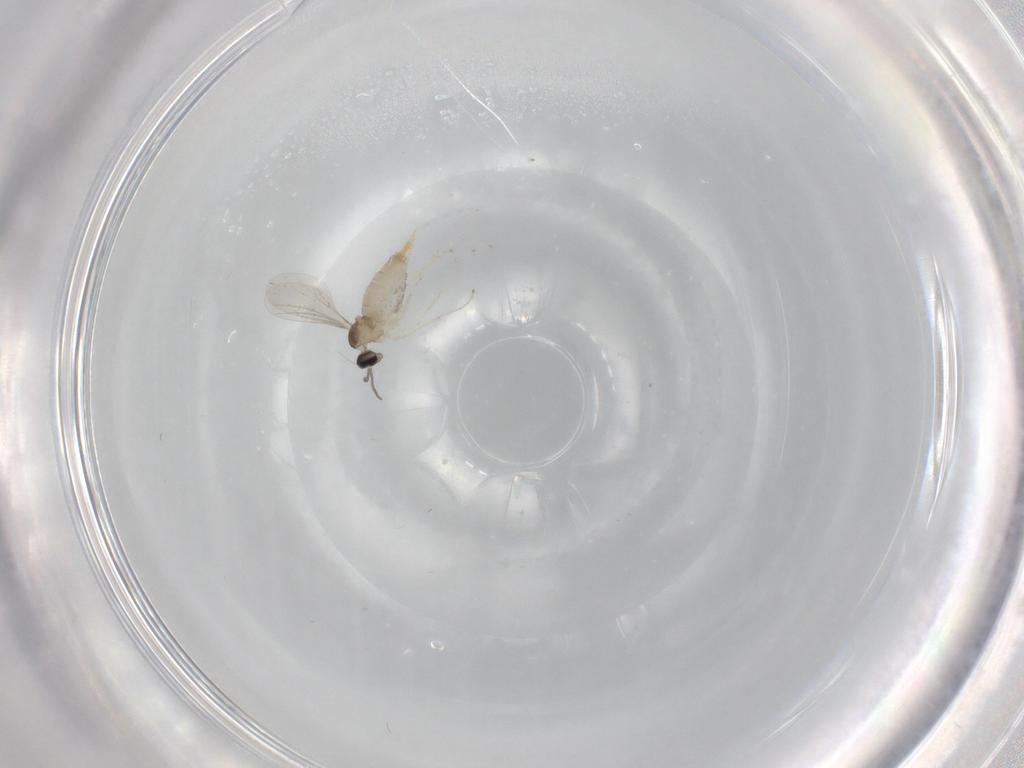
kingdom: Animalia
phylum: Arthropoda
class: Insecta
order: Diptera
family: Cecidomyiidae
